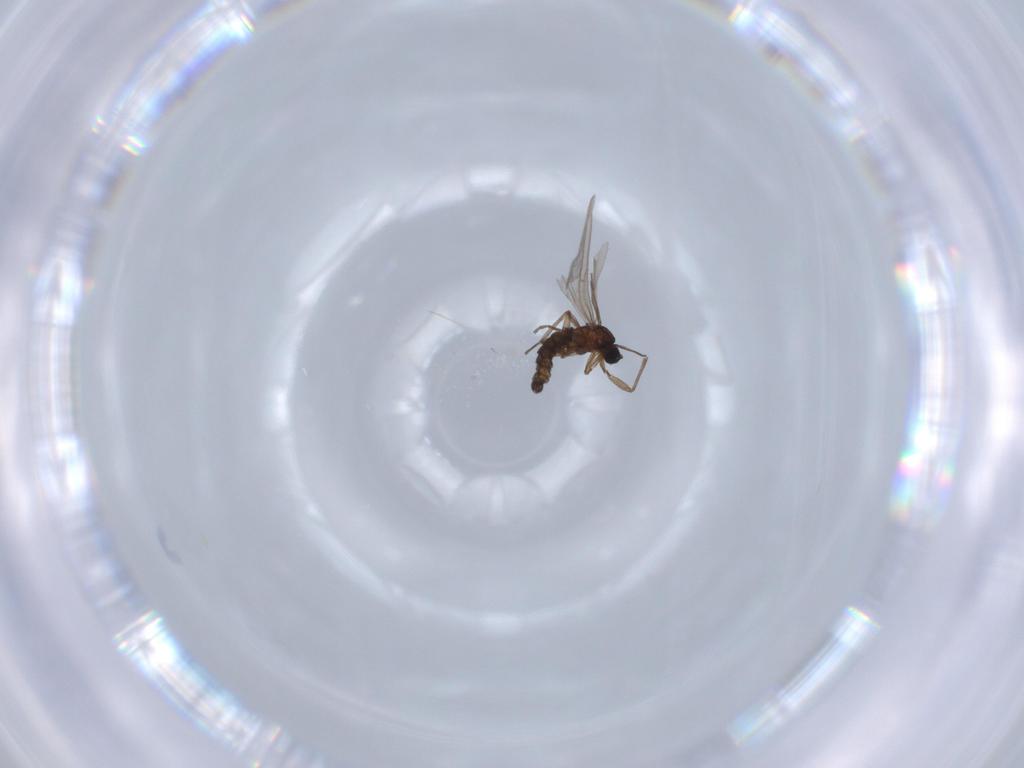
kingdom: Animalia
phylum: Arthropoda
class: Insecta
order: Diptera
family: Sciaridae
